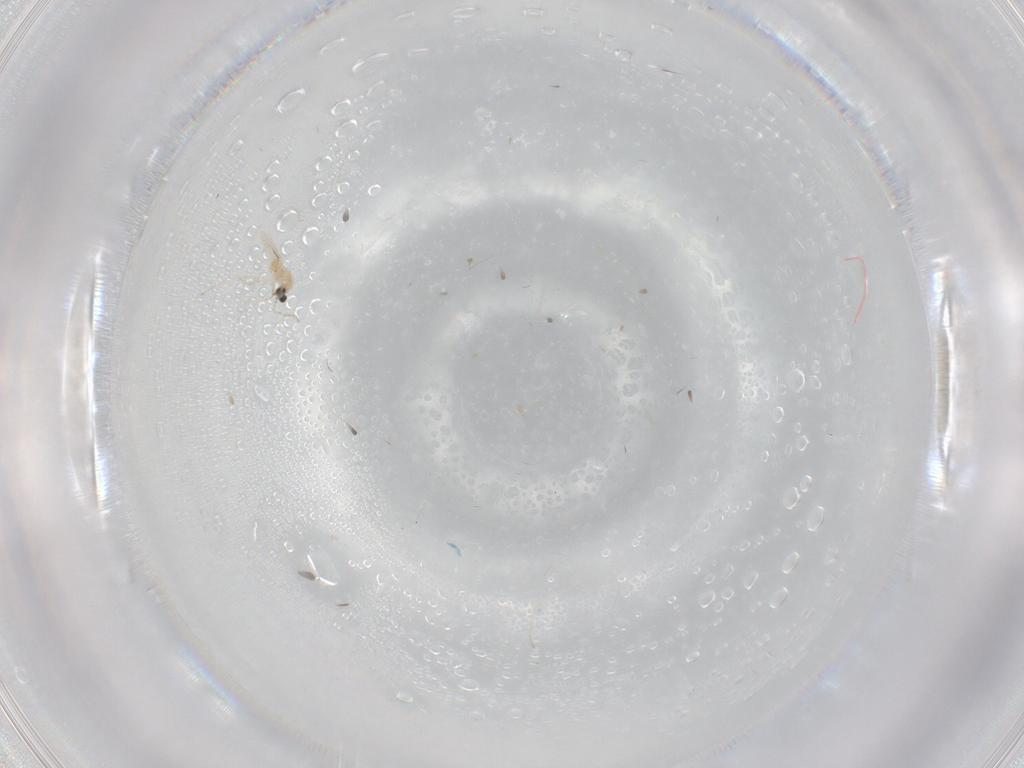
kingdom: Animalia
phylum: Arthropoda
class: Insecta
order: Diptera
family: Cecidomyiidae
